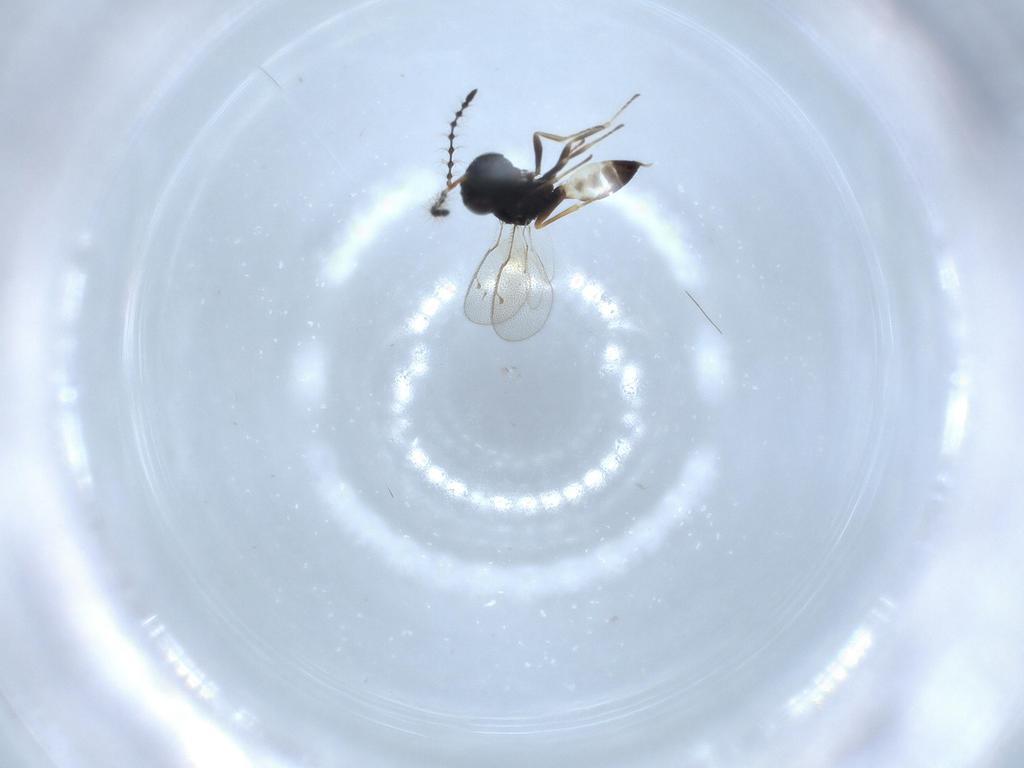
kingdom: Animalia
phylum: Arthropoda
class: Insecta
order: Hymenoptera
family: Pteromalidae
